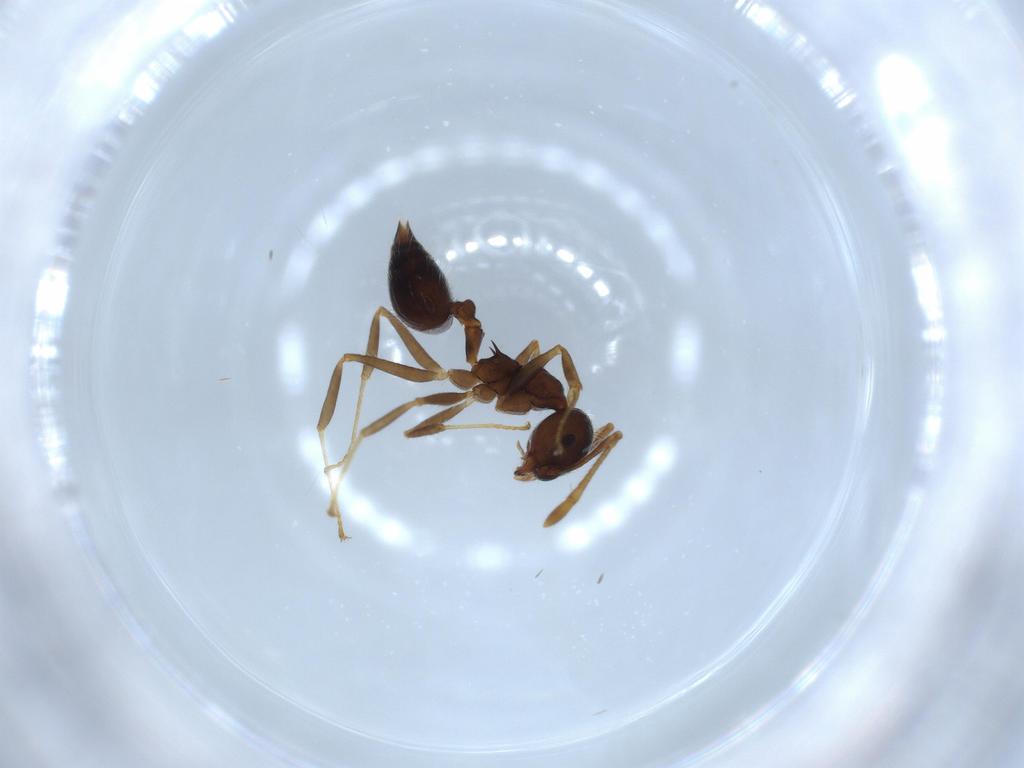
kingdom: Animalia
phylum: Arthropoda
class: Insecta
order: Hymenoptera
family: Formicidae
